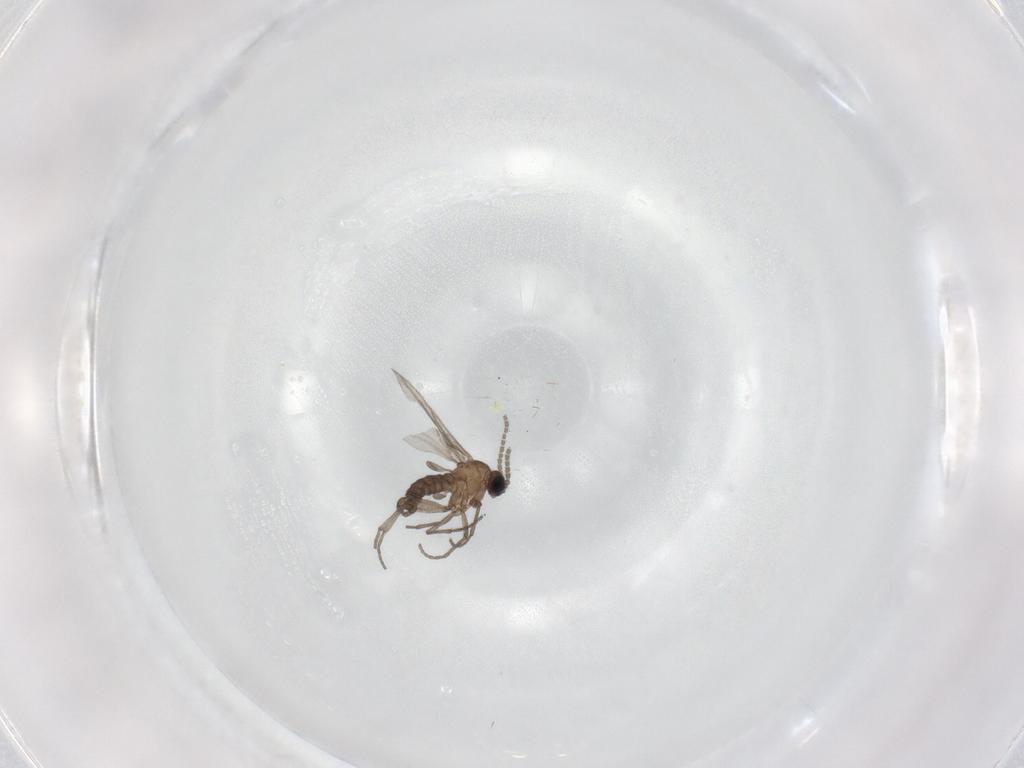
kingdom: Animalia
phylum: Arthropoda
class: Insecta
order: Diptera
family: Sciaridae
